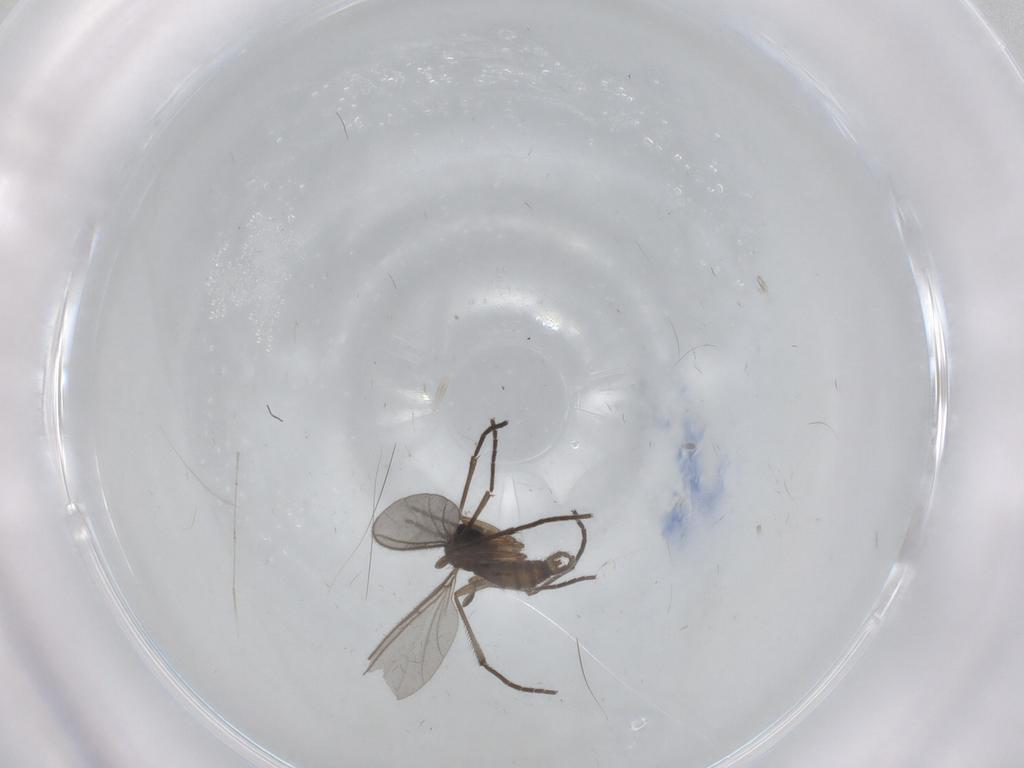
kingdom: Animalia
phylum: Arthropoda
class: Insecta
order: Diptera
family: Sciaridae
